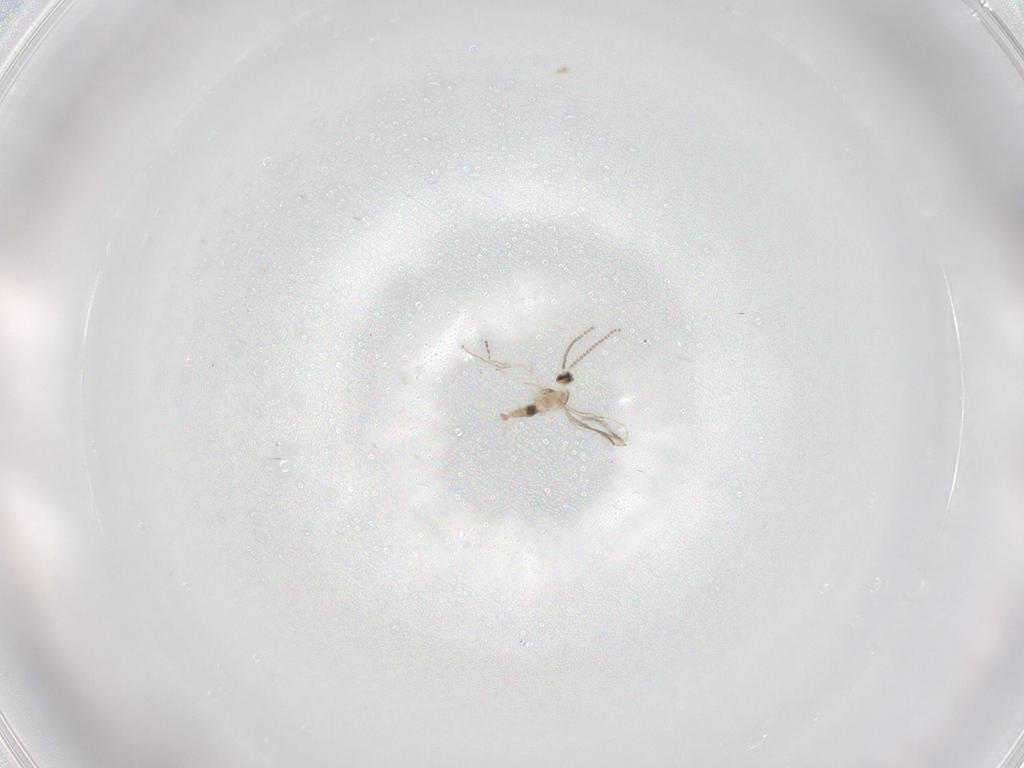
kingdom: Animalia
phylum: Arthropoda
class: Insecta
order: Diptera
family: Cecidomyiidae
